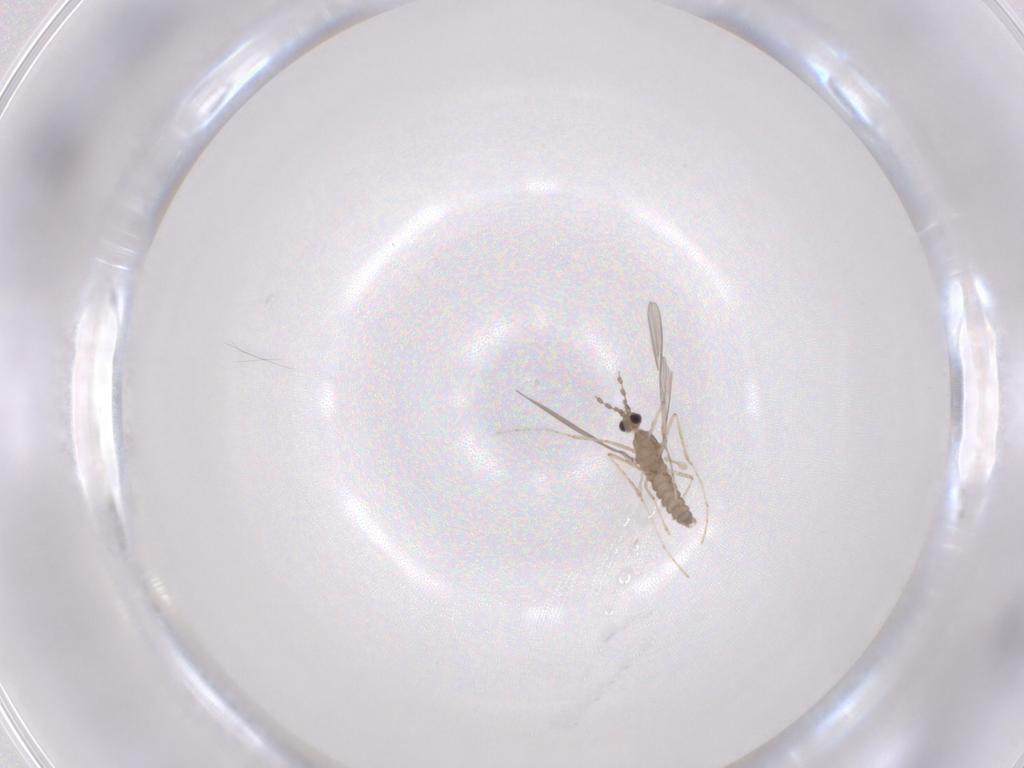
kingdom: Animalia
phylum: Arthropoda
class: Insecta
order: Diptera
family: Cecidomyiidae
